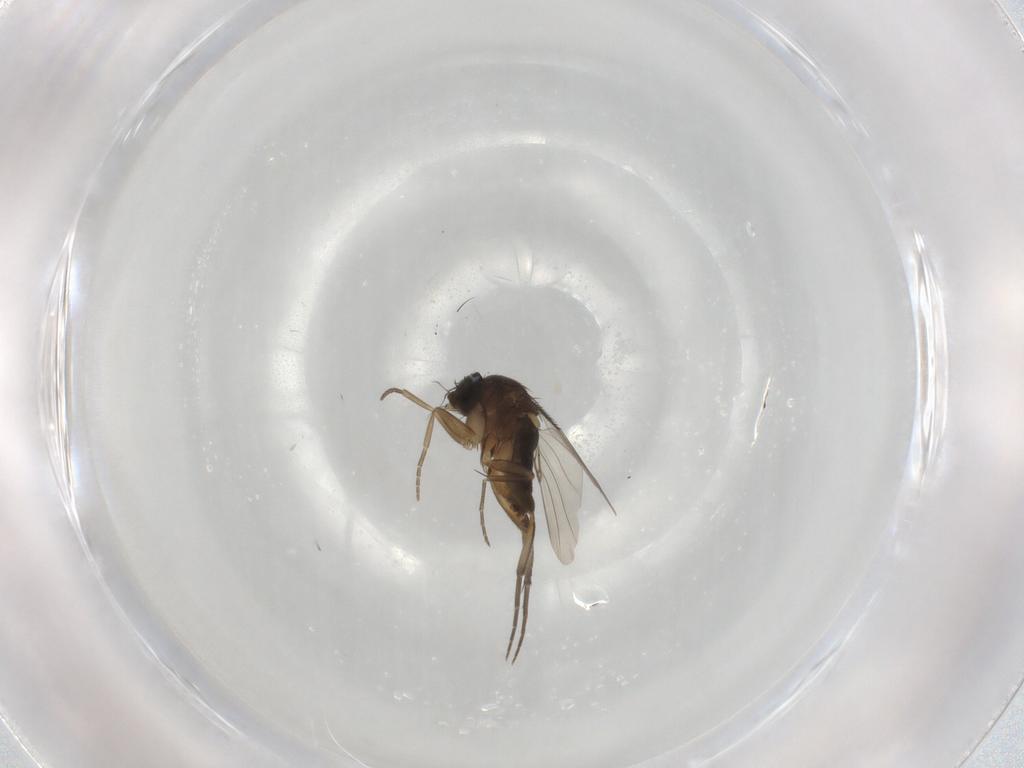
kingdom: Animalia
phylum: Arthropoda
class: Insecta
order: Diptera
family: Phoridae
